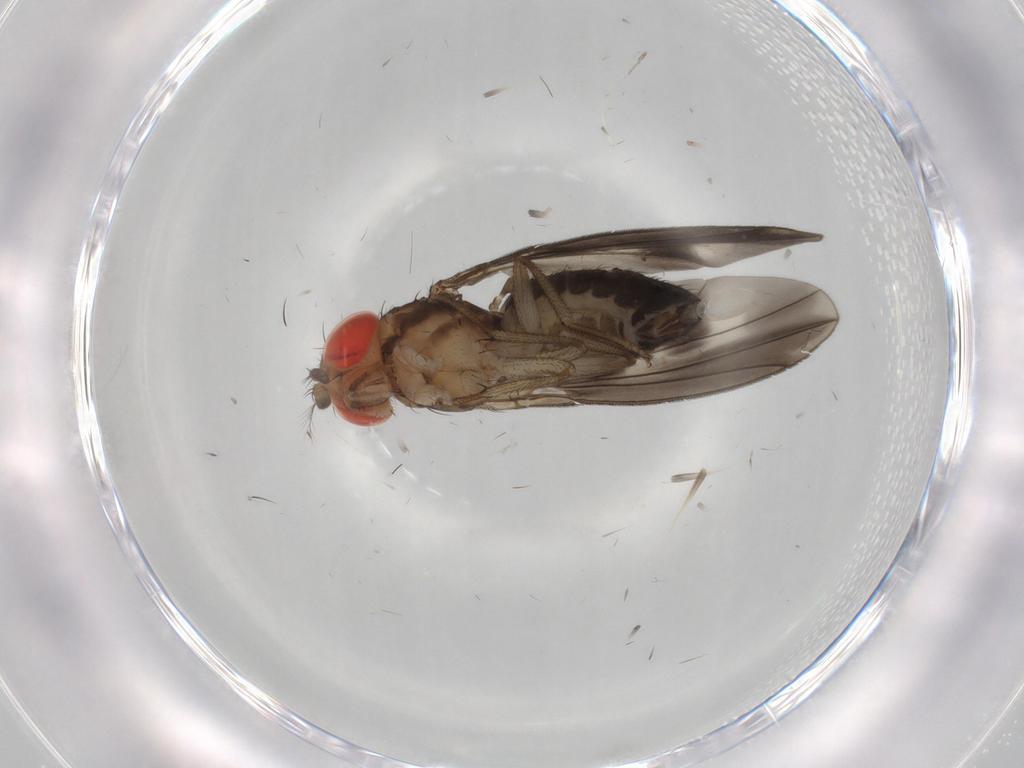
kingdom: Animalia
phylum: Arthropoda
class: Insecta
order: Diptera
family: Drosophilidae
